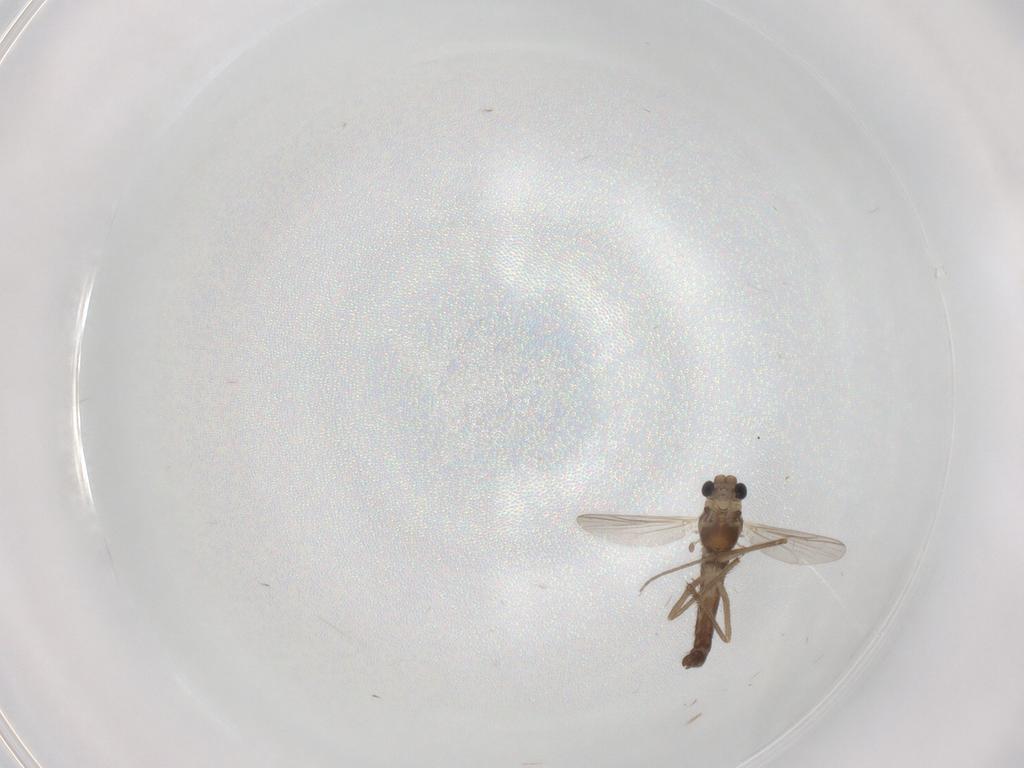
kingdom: Animalia
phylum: Arthropoda
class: Insecta
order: Diptera
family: Chironomidae
